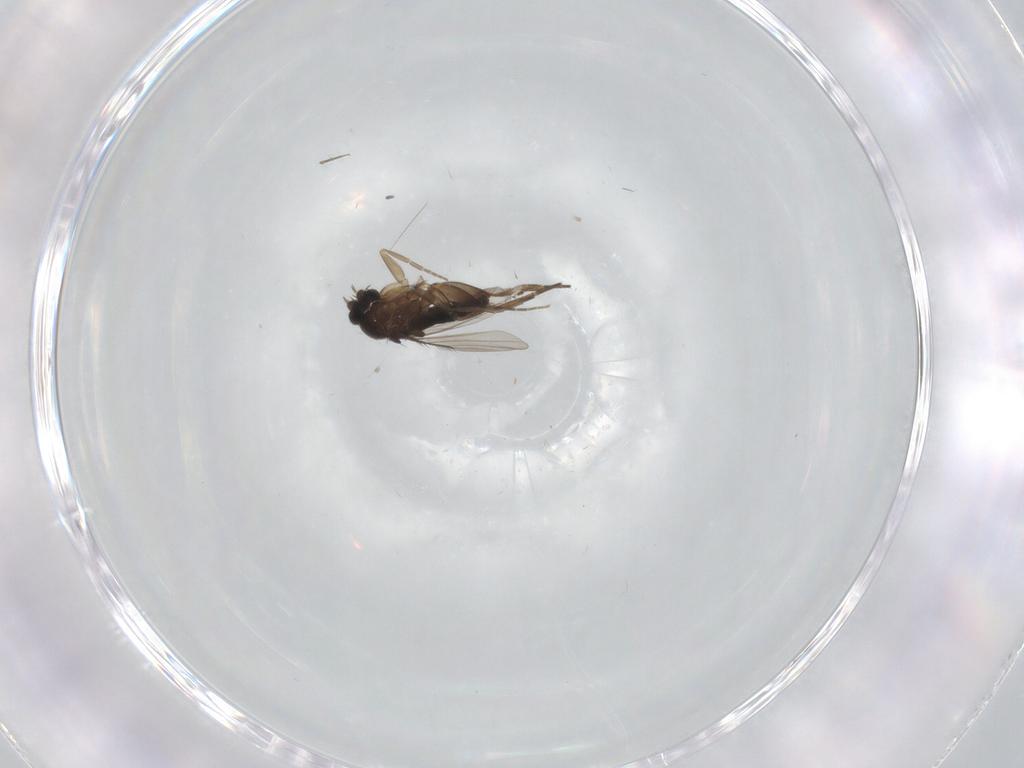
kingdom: Animalia
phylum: Arthropoda
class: Insecta
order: Diptera
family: Phoridae
